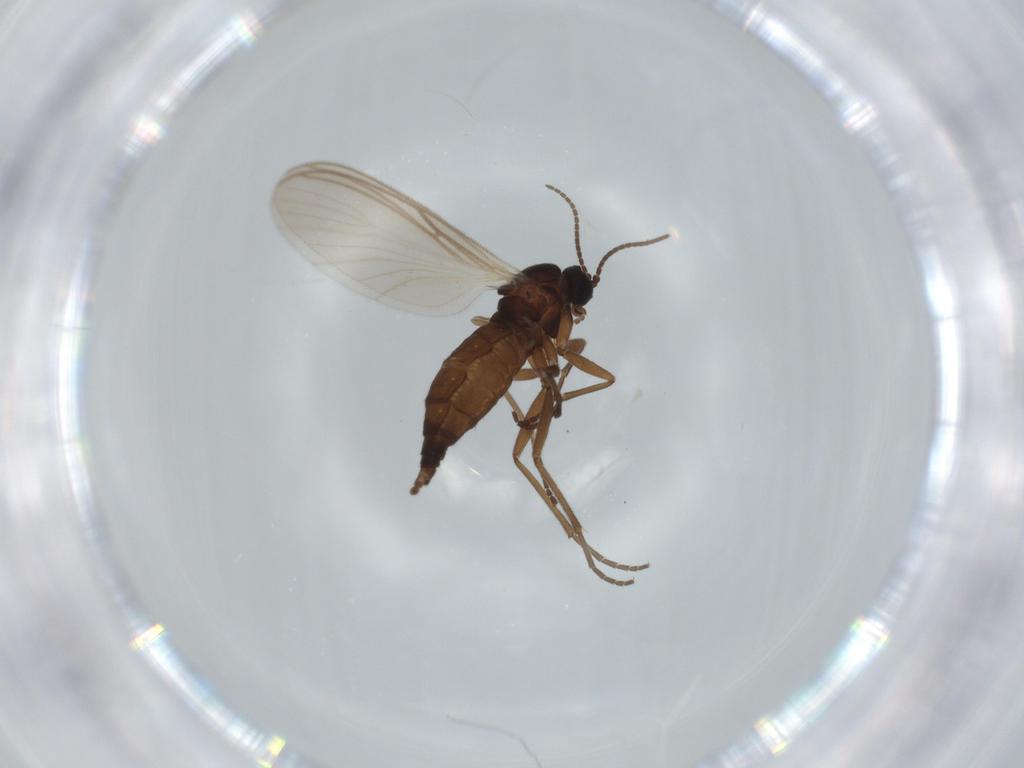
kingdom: Animalia
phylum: Arthropoda
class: Insecta
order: Diptera
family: Sciaridae
